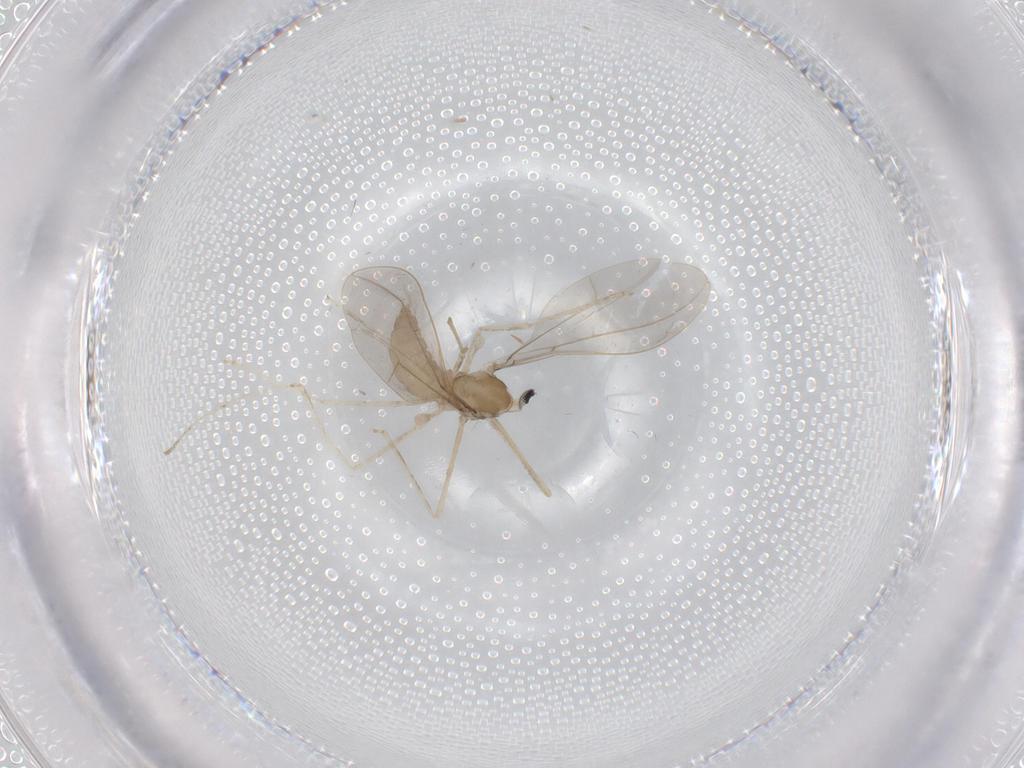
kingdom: Animalia
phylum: Arthropoda
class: Insecta
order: Diptera
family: Cecidomyiidae
